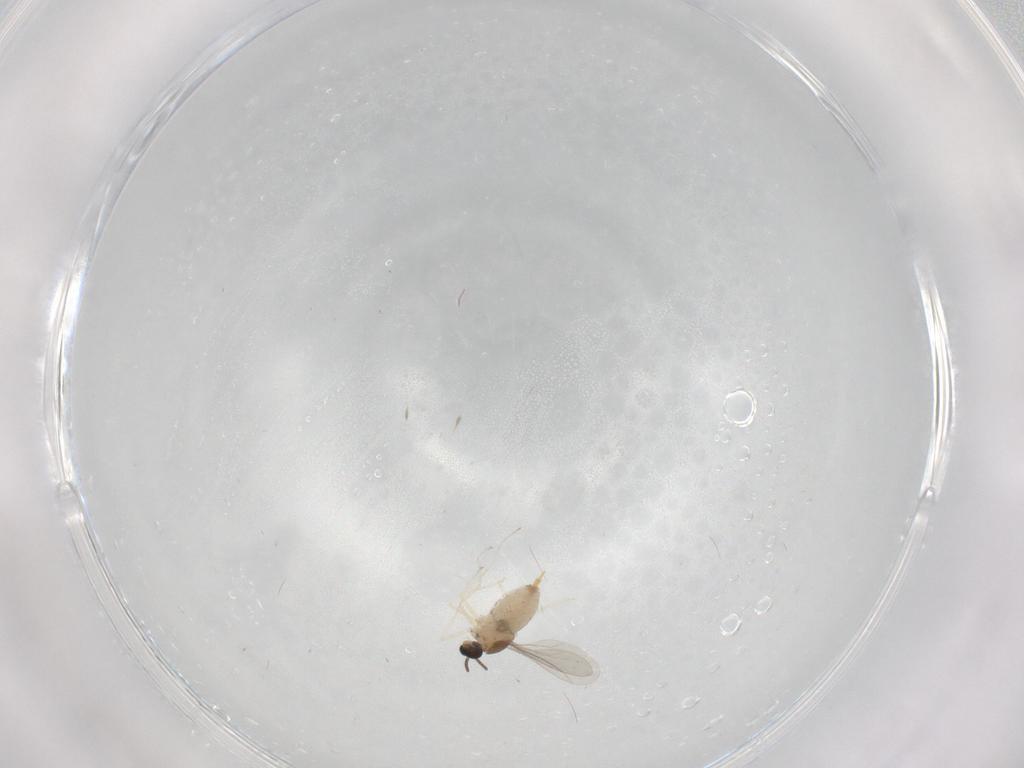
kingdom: Animalia
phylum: Arthropoda
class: Insecta
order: Diptera
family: Cecidomyiidae
